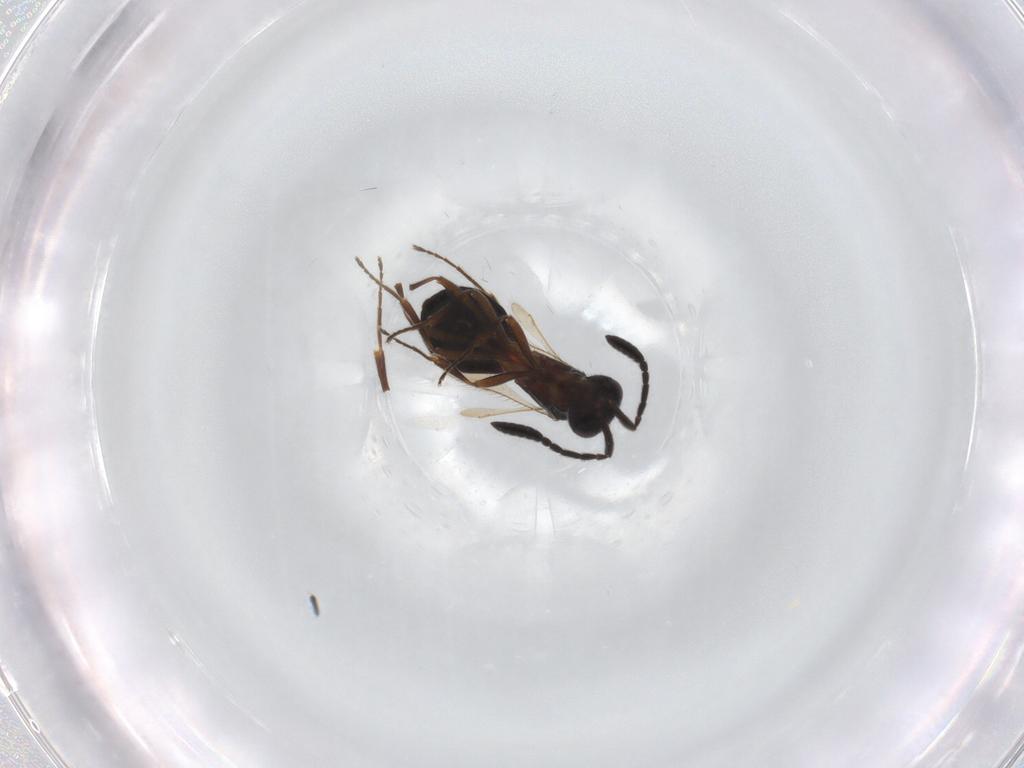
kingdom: Animalia
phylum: Arthropoda
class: Insecta
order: Hymenoptera
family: Scelionidae
